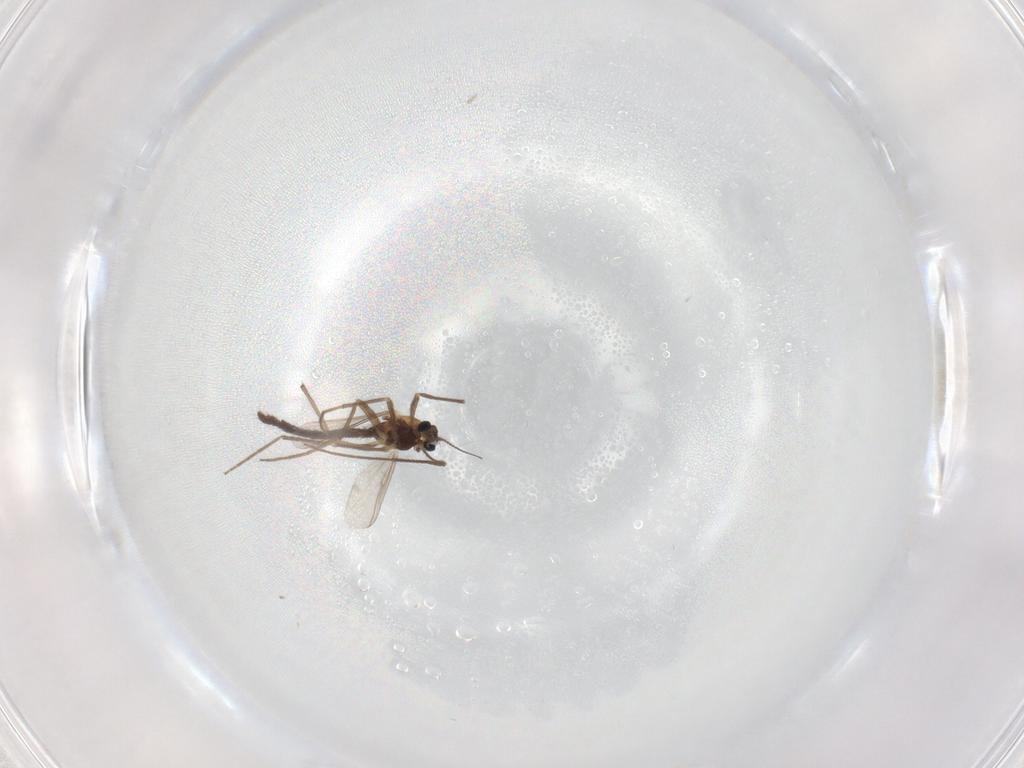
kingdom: Animalia
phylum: Arthropoda
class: Insecta
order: Diptera
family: Chironomidae
